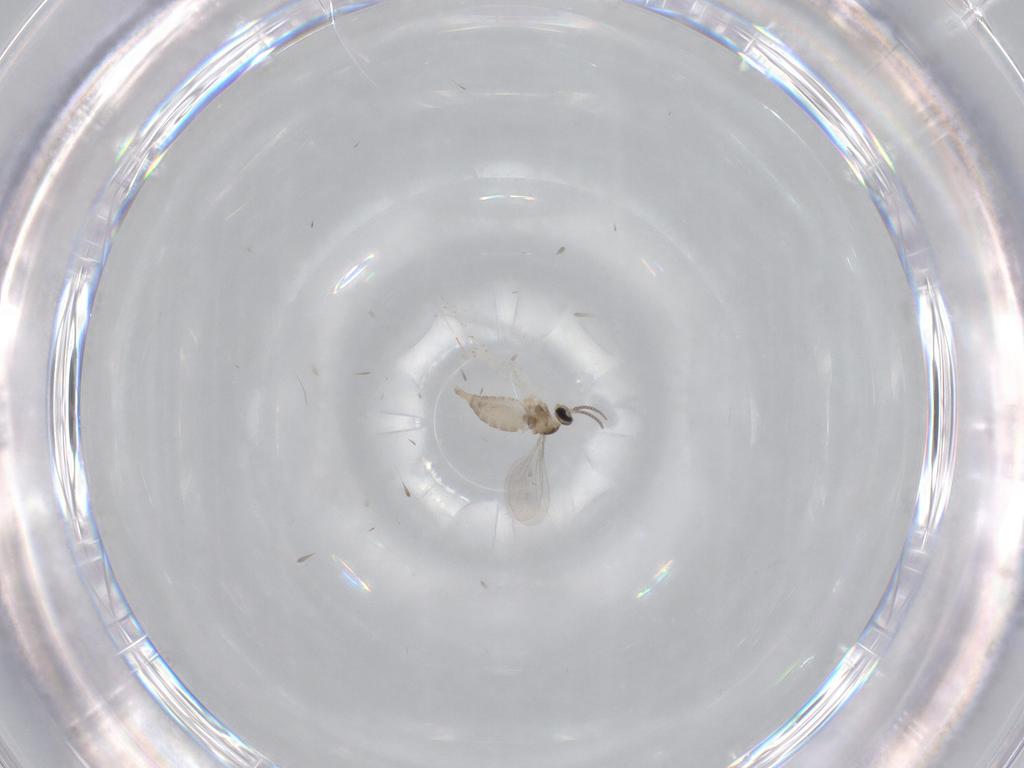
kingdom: Animalia
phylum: Arthropoda
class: Insecta
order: Diptera
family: Cecidomyiidae
